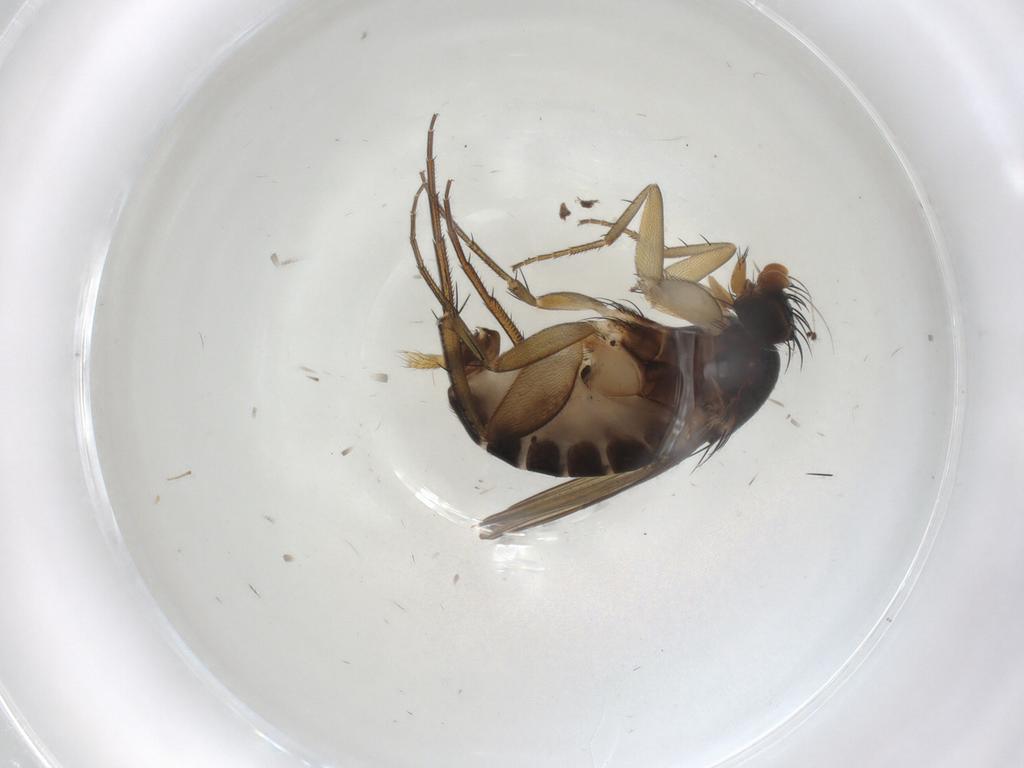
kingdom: Animalia
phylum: Arthropoda
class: Insecta
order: Diptera
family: Phoridae
